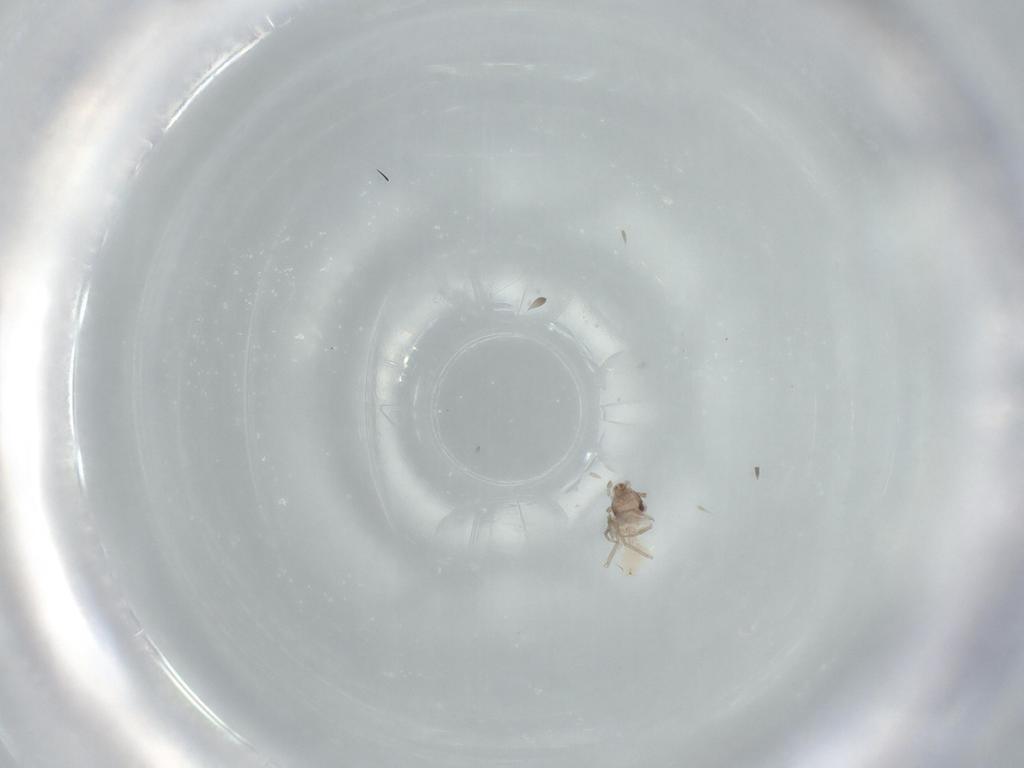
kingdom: Animalia
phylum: Arthropoda
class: Insecta
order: Psocodea
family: Lepidopsocidae
